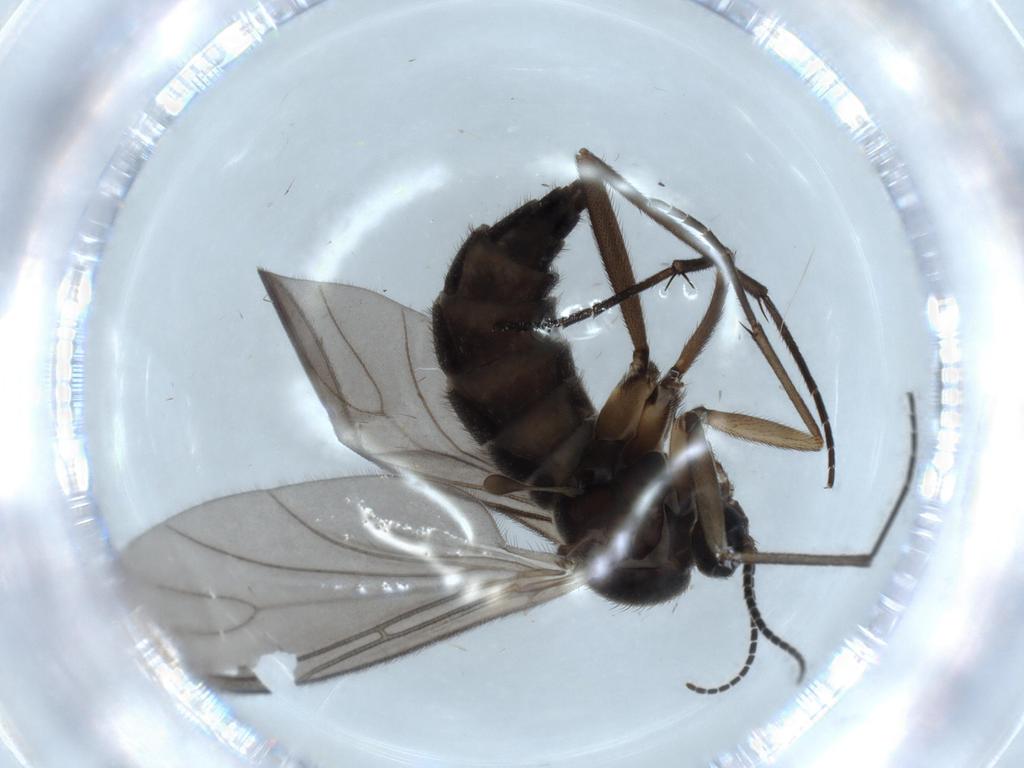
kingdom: Animalia
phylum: Arthropoda
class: Insecta
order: Diptera
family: Sciaridae
